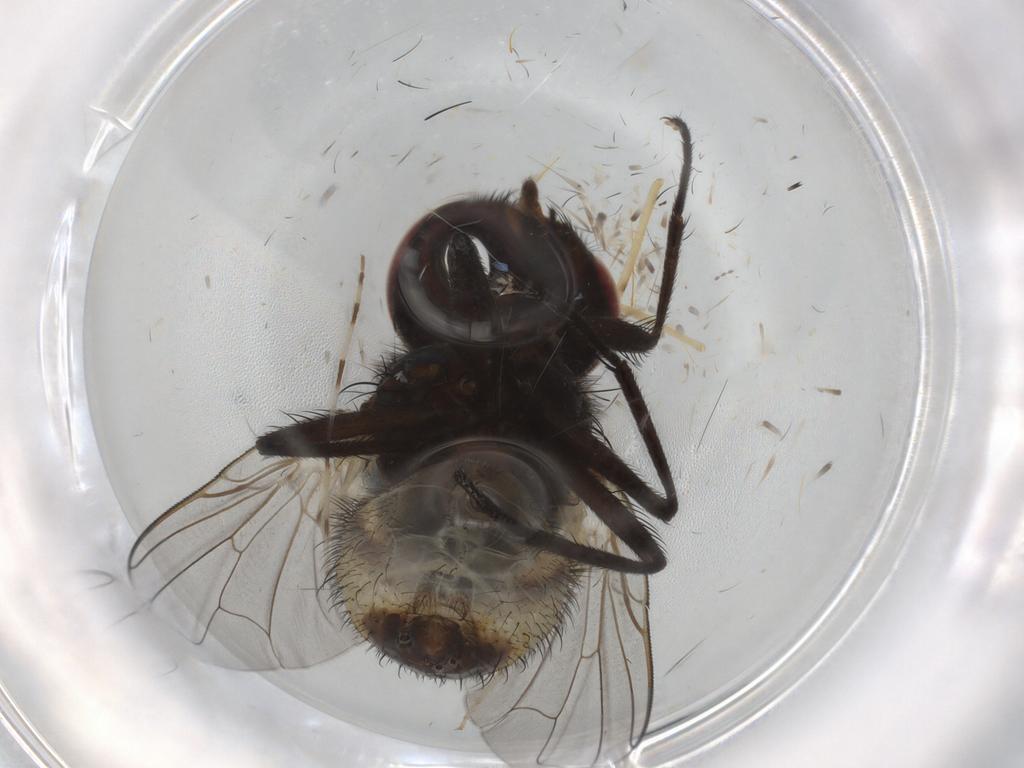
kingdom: Animalia
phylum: Arthropoda
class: Insecta
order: Diptera
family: Muscidae
